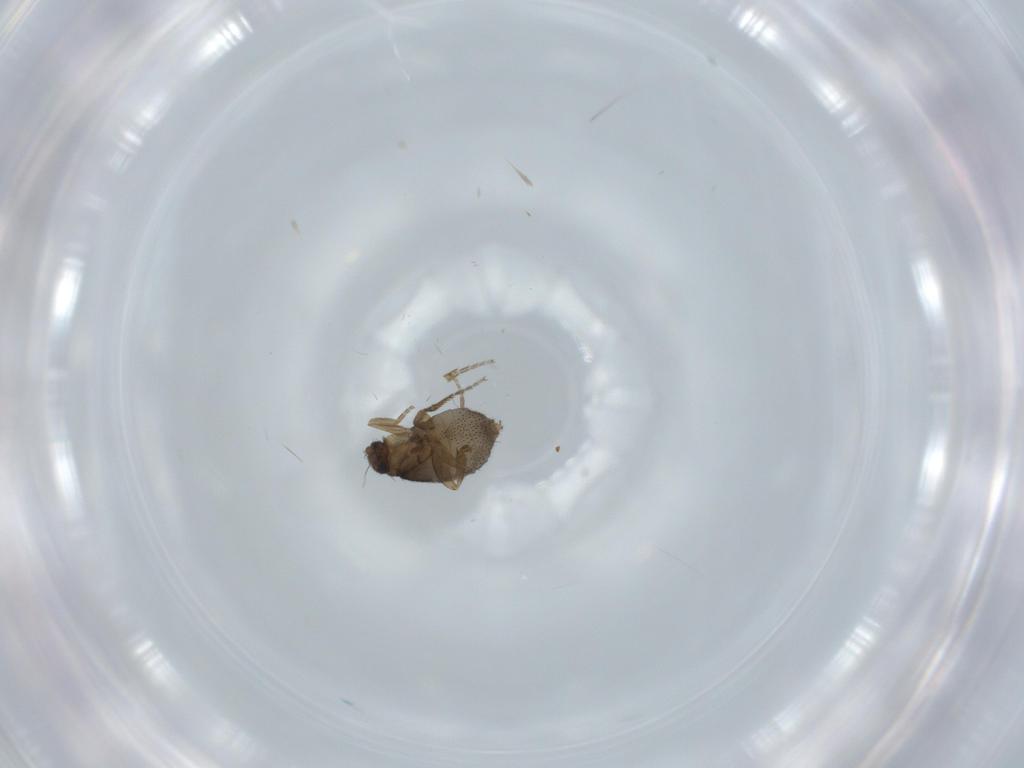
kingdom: Animalia
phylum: Arthropoda
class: Insecta
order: Diptera
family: Phoridae
